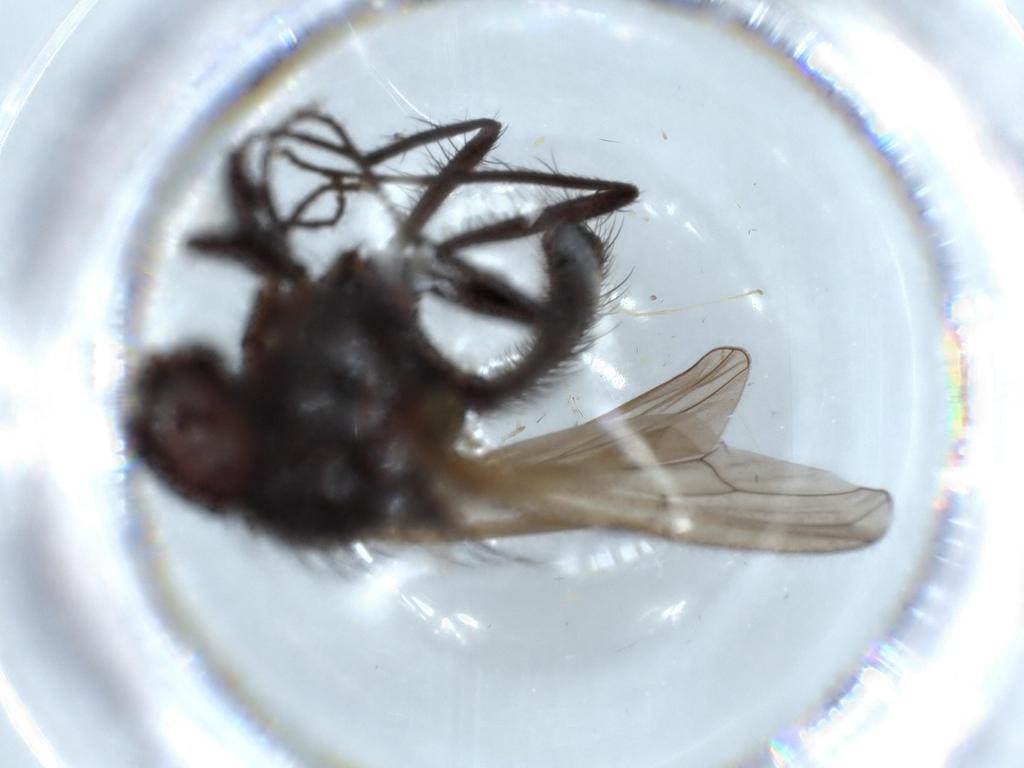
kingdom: Animalia
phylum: Arthropoda
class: Insecta
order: Diptera
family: Anthomyiidae
